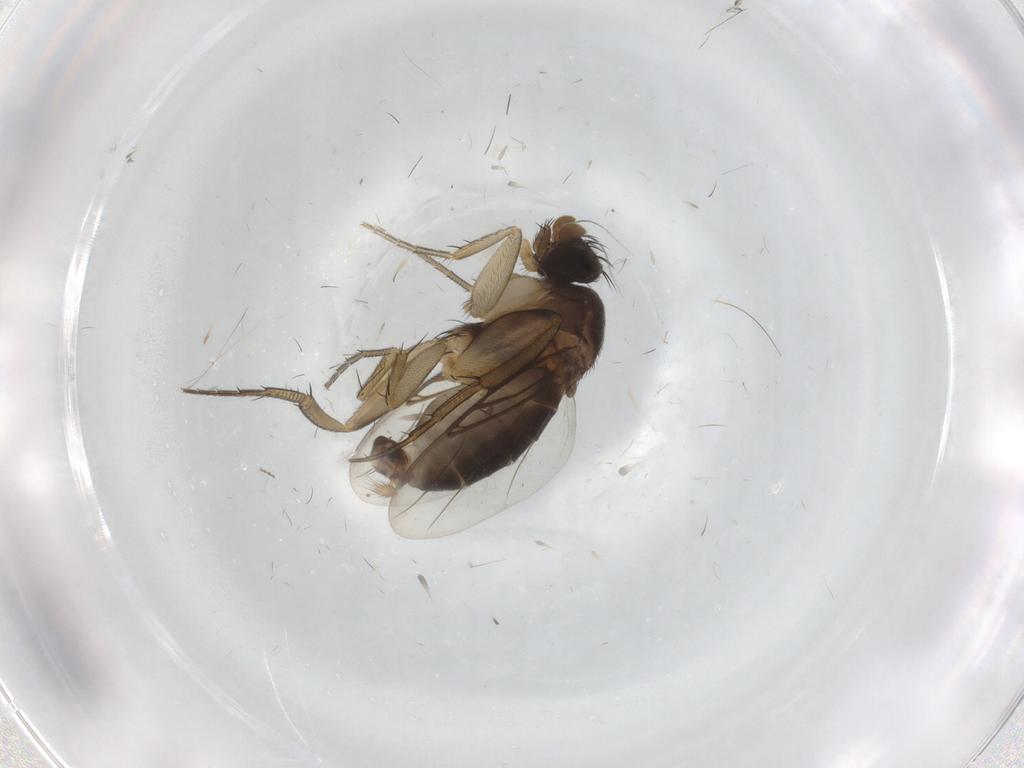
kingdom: Animalia
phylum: Arthropoda
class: Insecta
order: Diptera
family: Phoridae
